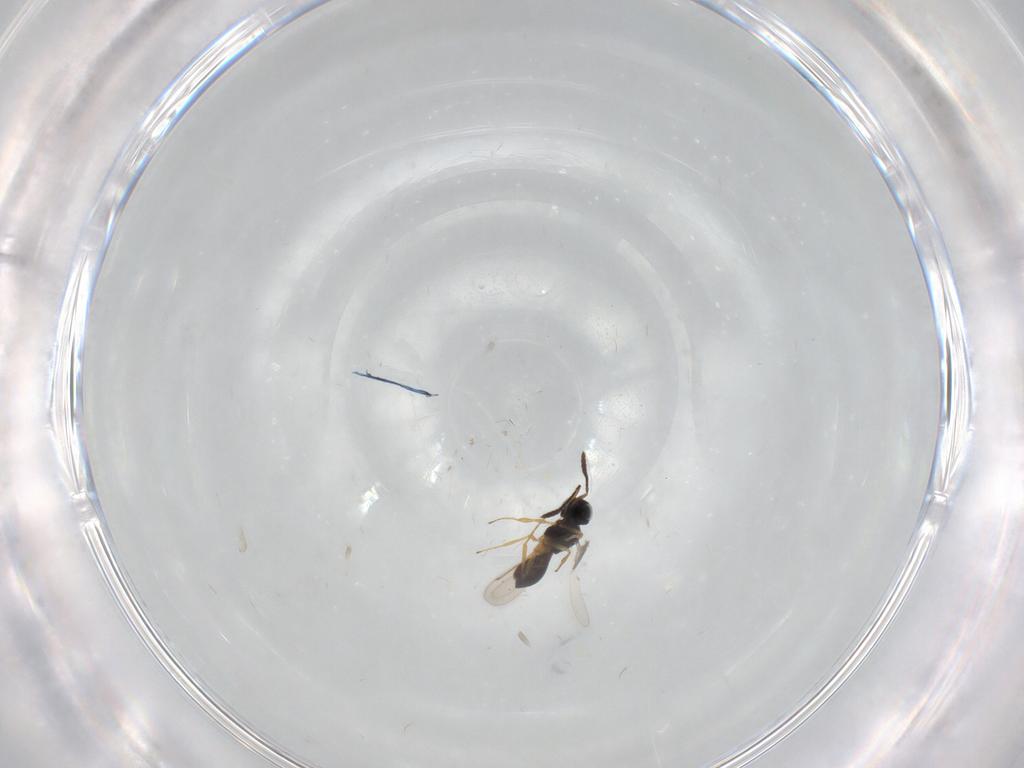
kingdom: Animalia
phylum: Arthropoda
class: Insecta
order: Hymenoptera
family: Scelionidae
